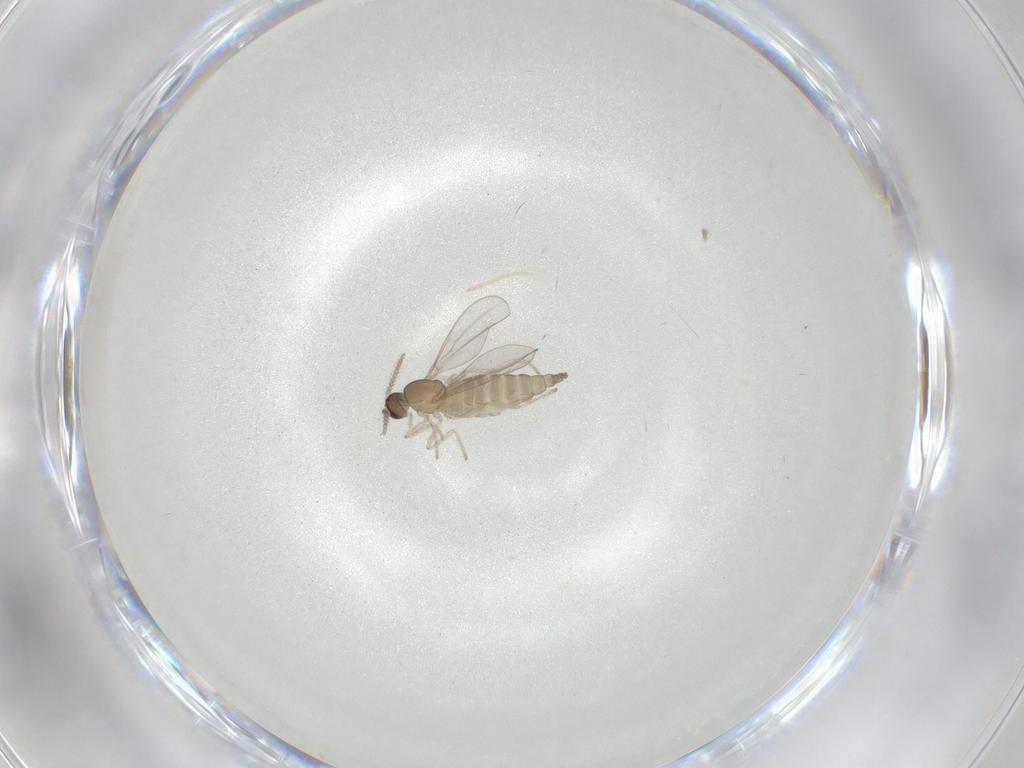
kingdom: Animalia
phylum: Arthropoda
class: Insecta
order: Diptera
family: Cecidomyiidae
